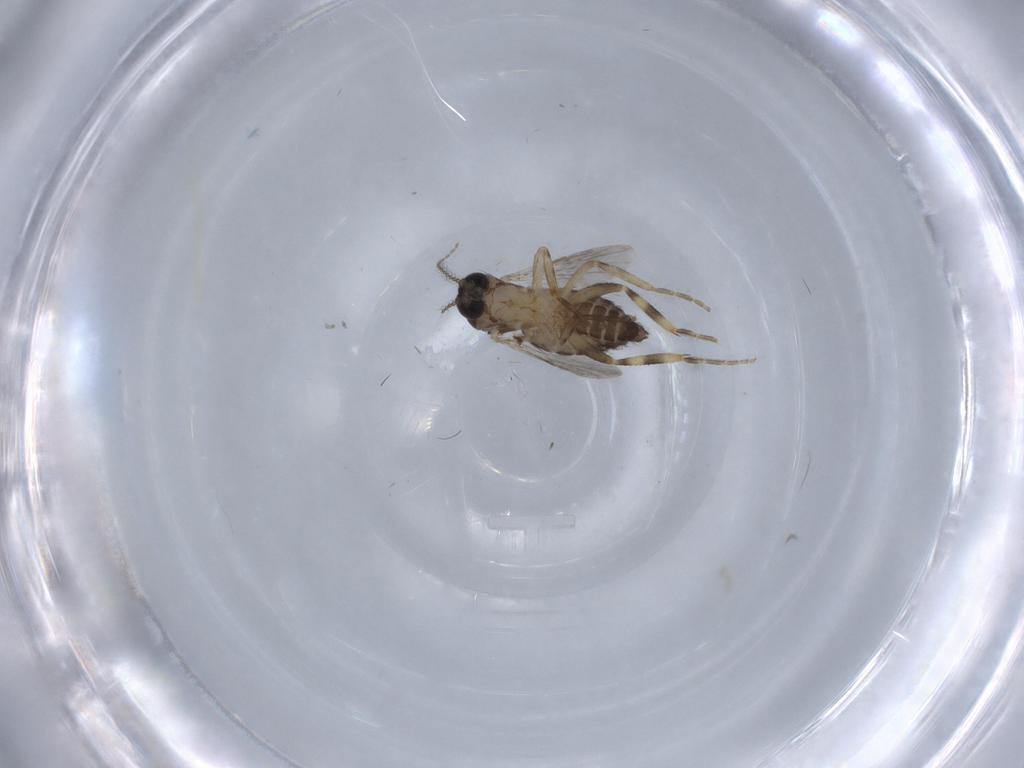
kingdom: Animalia
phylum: Arthropoda
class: Insecta
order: Diptera
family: Ceratopogonidae
